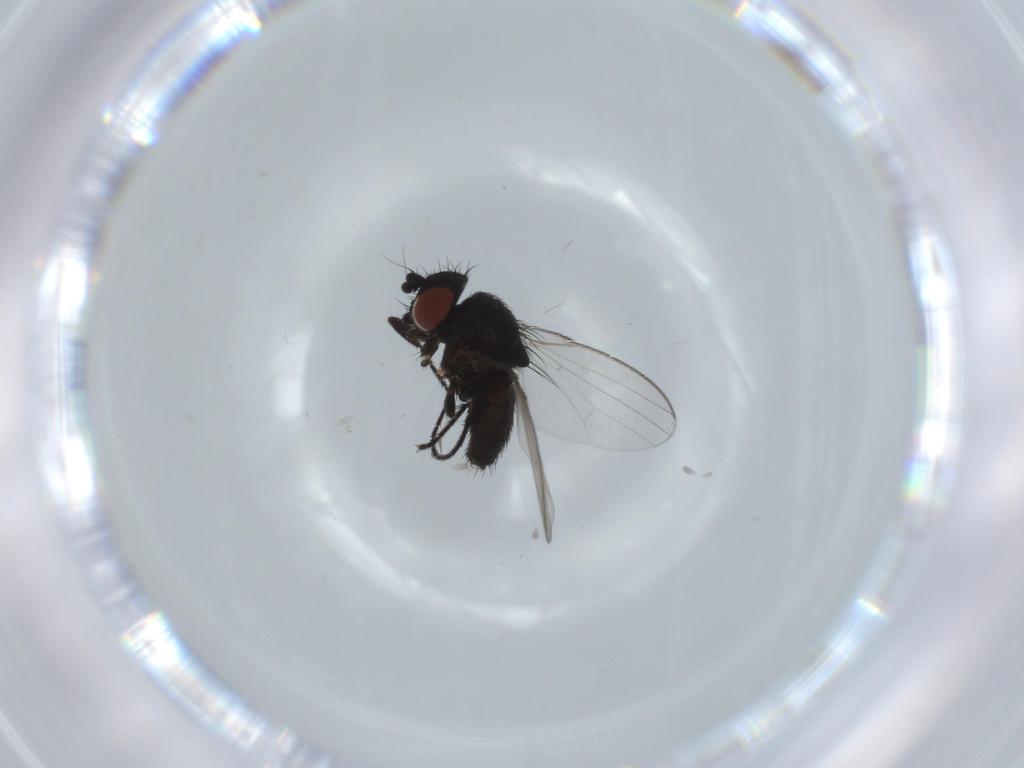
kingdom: Animalia
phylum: Arthropoda
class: Insecta
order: Diptera
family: Milichiidae
